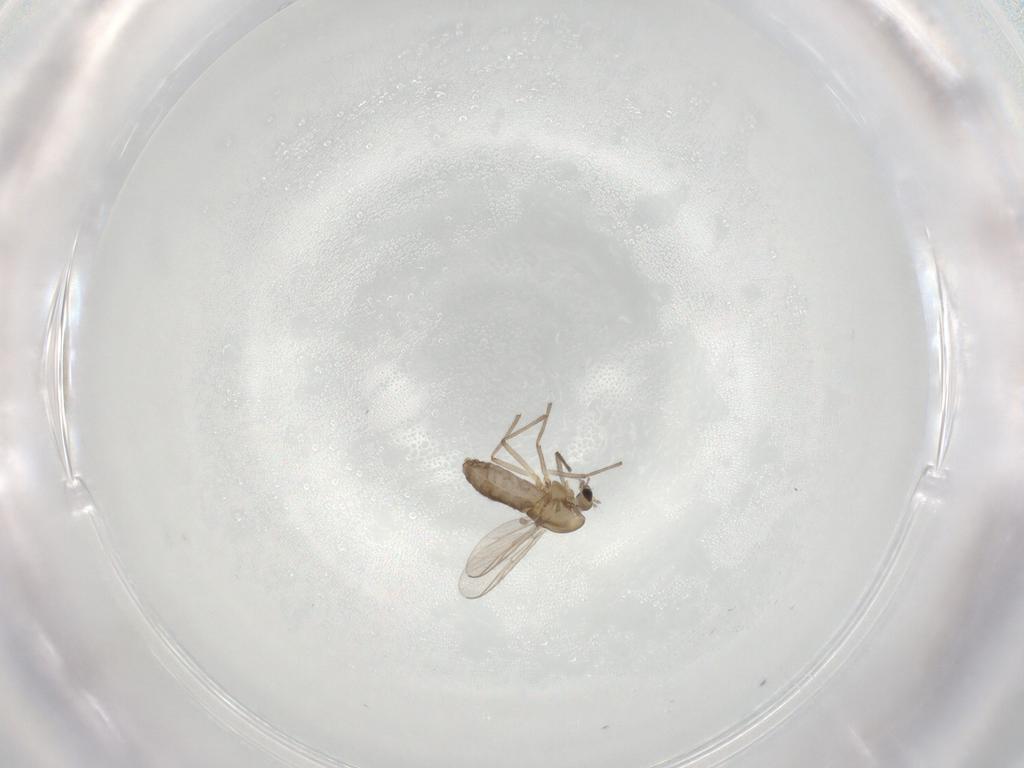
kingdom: Animalia
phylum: Arthropoda
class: Insecta
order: Diptera
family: Chironomidae
